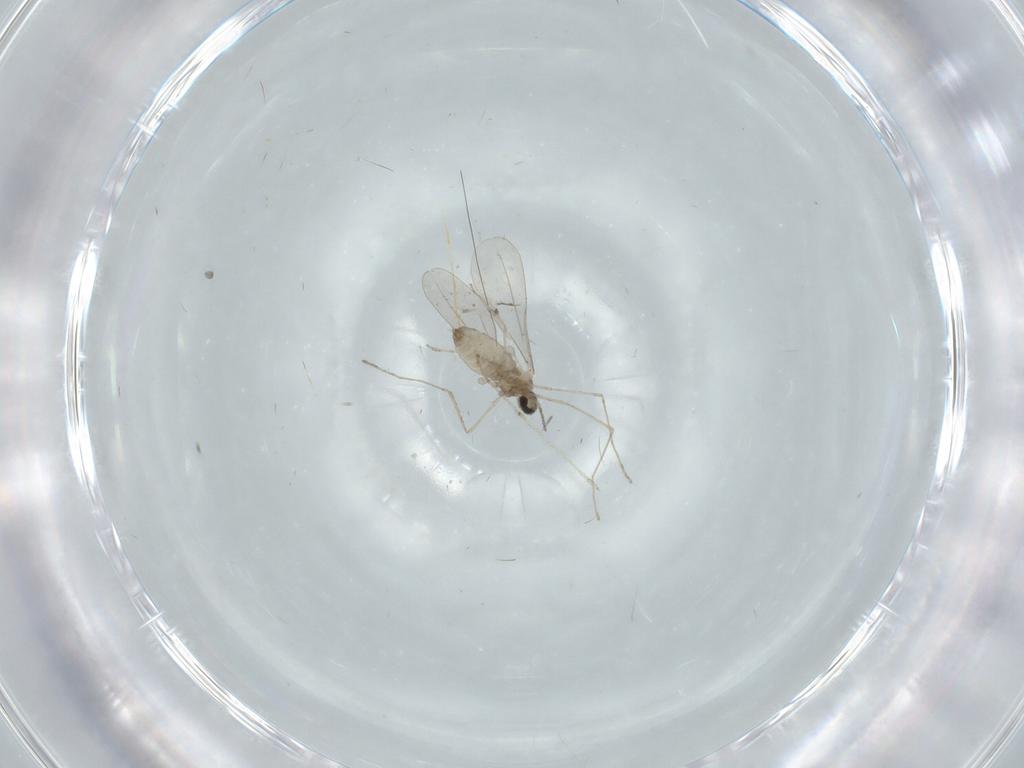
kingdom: Animalia
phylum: Arthropoda
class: Insecta
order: Diptera
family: Cecidomyiidae
